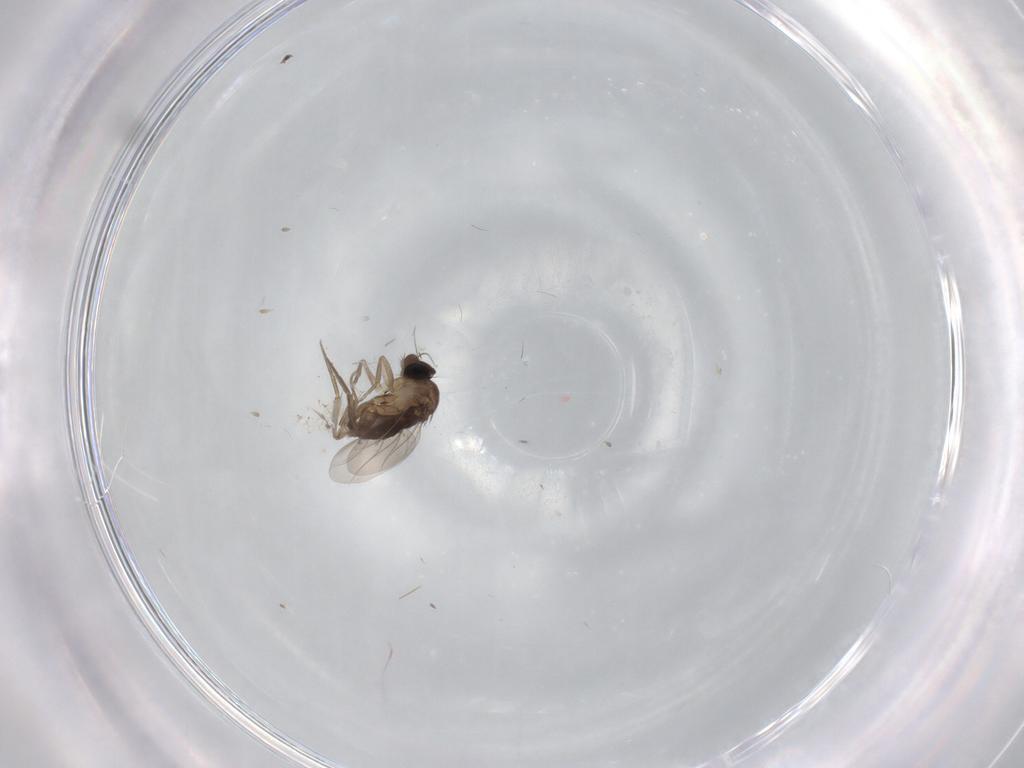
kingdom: Animalia
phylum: Arthropoda
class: Insecta
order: Diptera
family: Phoridae
